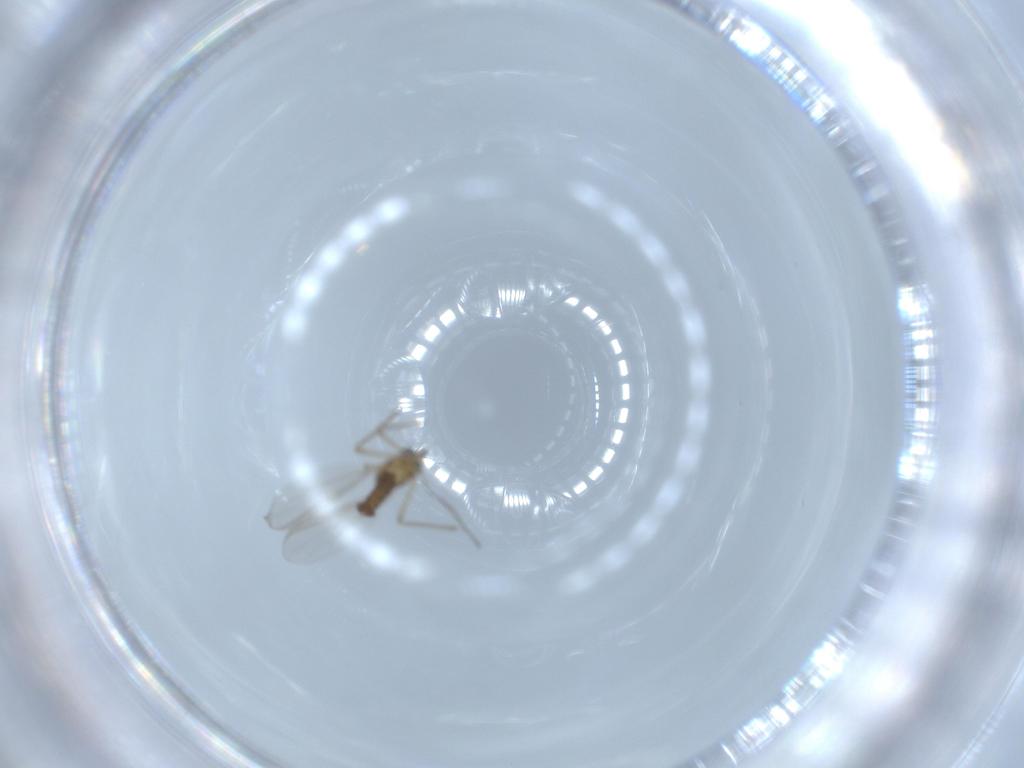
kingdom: Animalia
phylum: Arthropoda
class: Insecta
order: Diptera
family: Chironomidae
